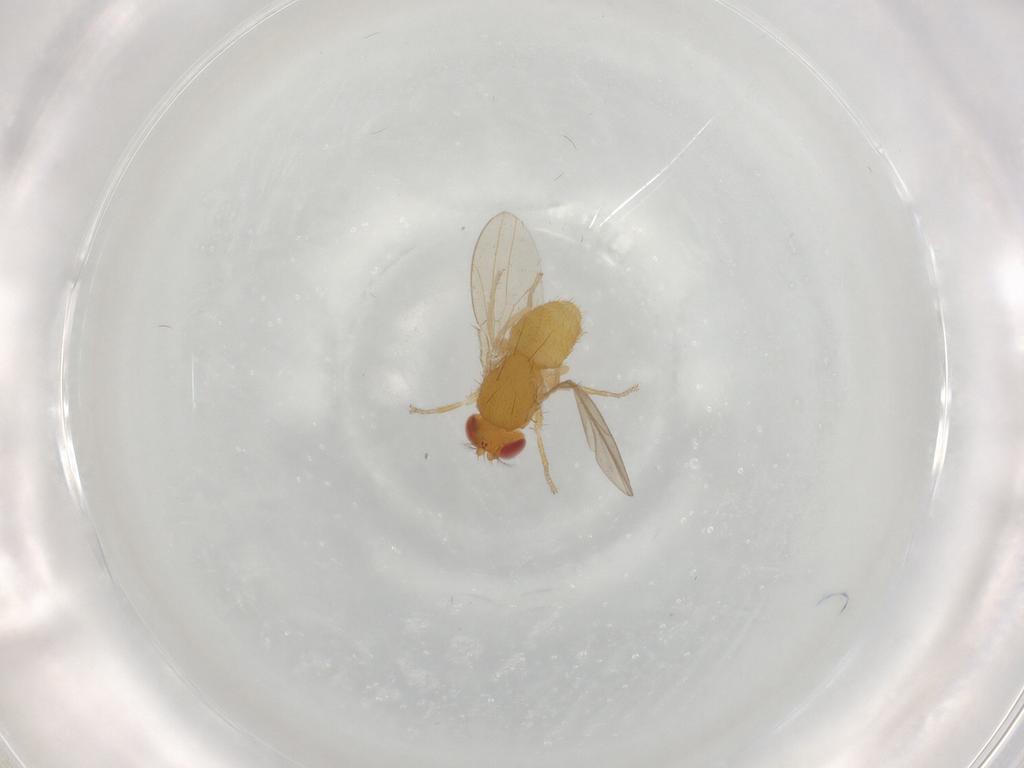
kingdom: Animalia
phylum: Arthropoda
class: Insecta
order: Diptera
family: Drosophilidae
